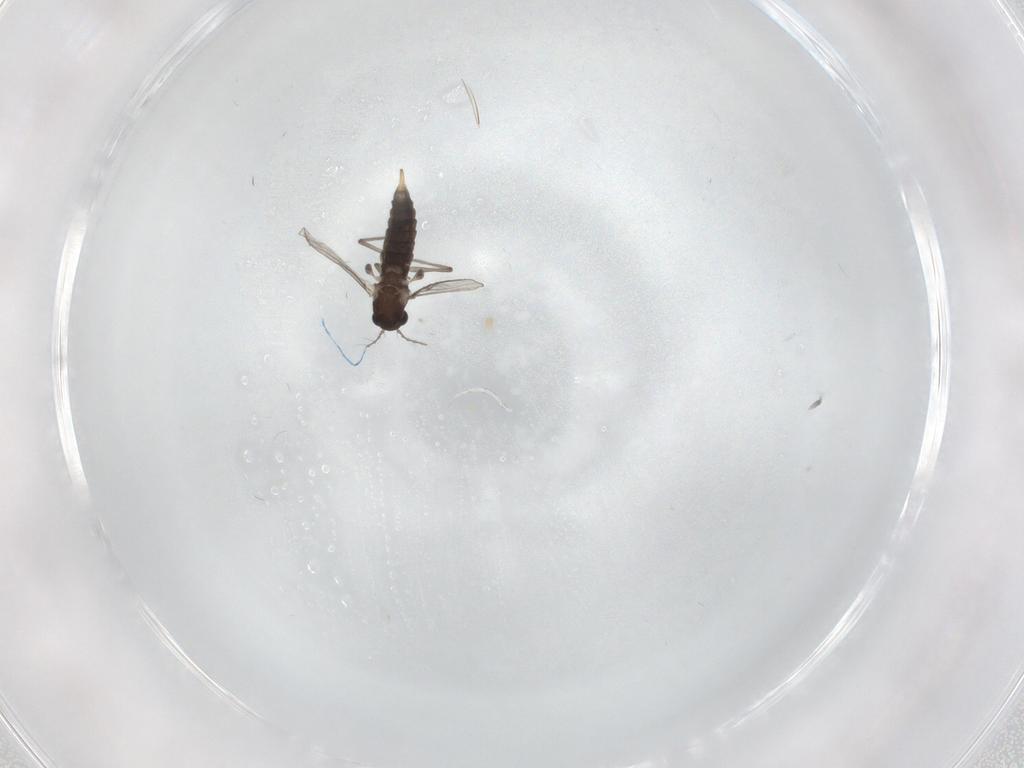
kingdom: Animalia
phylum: Arthropoda
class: Insecta
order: Diptera
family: Chironomidae
